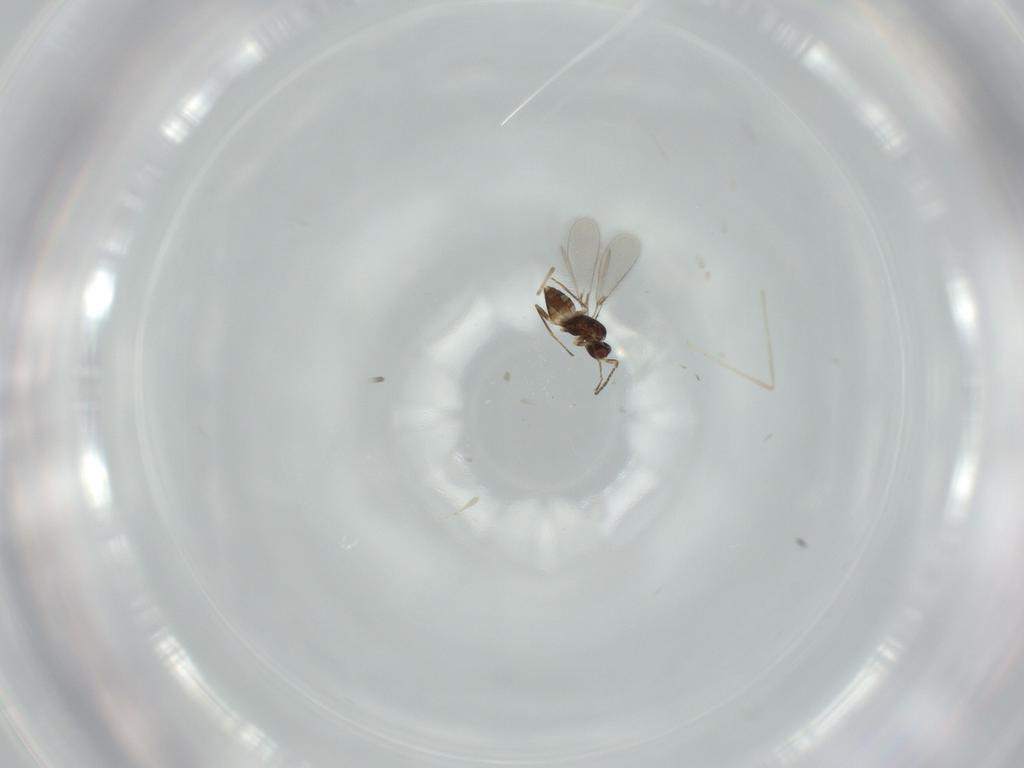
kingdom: Animalia
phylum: Arthropoda
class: Insecta
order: Hymenoptera
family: Mymaridae
